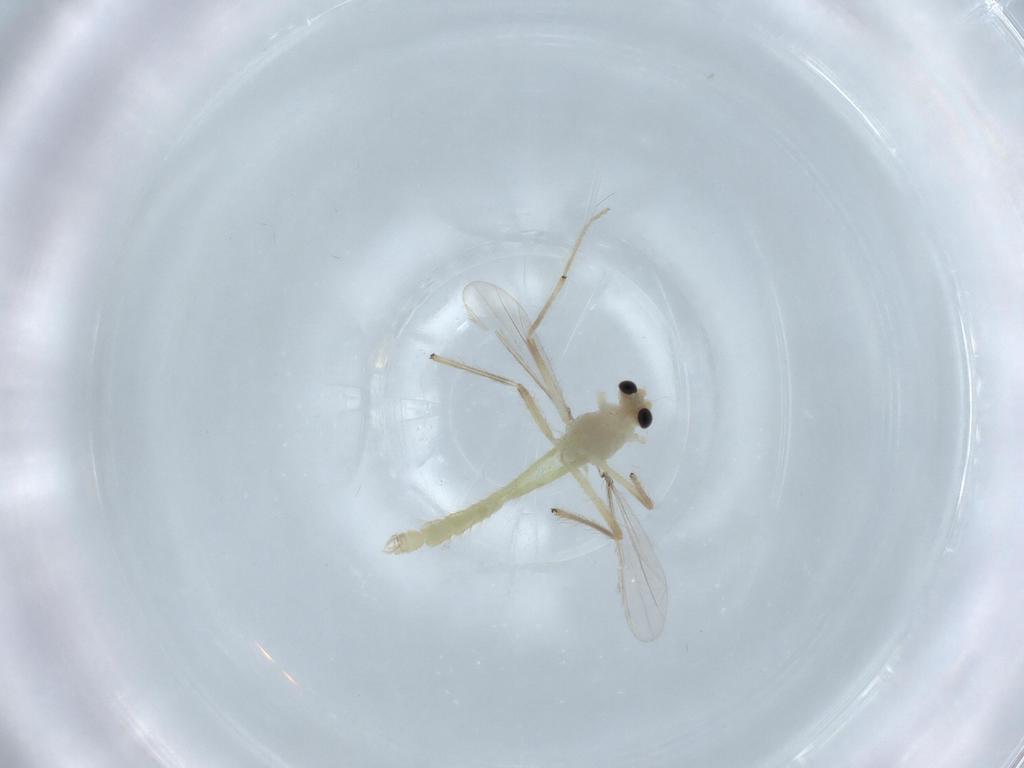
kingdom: Animalia
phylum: Arthropoda
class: Insecta
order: Diptera
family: Chironomidae
